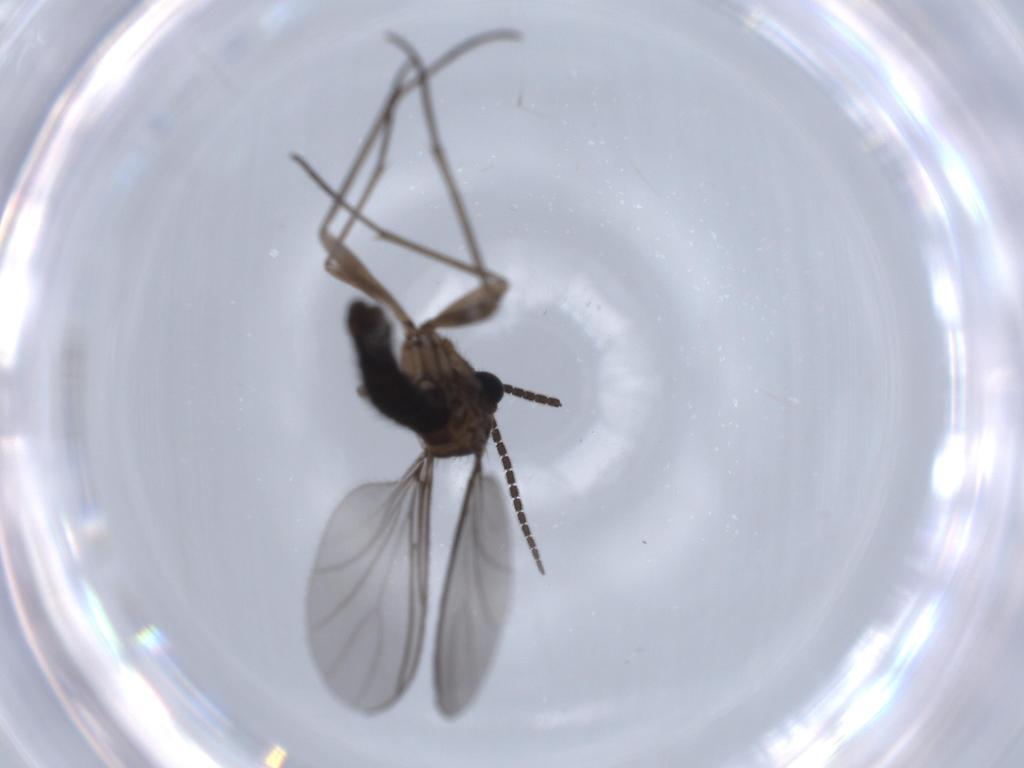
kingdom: Animalia
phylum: Arthropoda
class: Insecta
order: Diptera
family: Sciaridae
